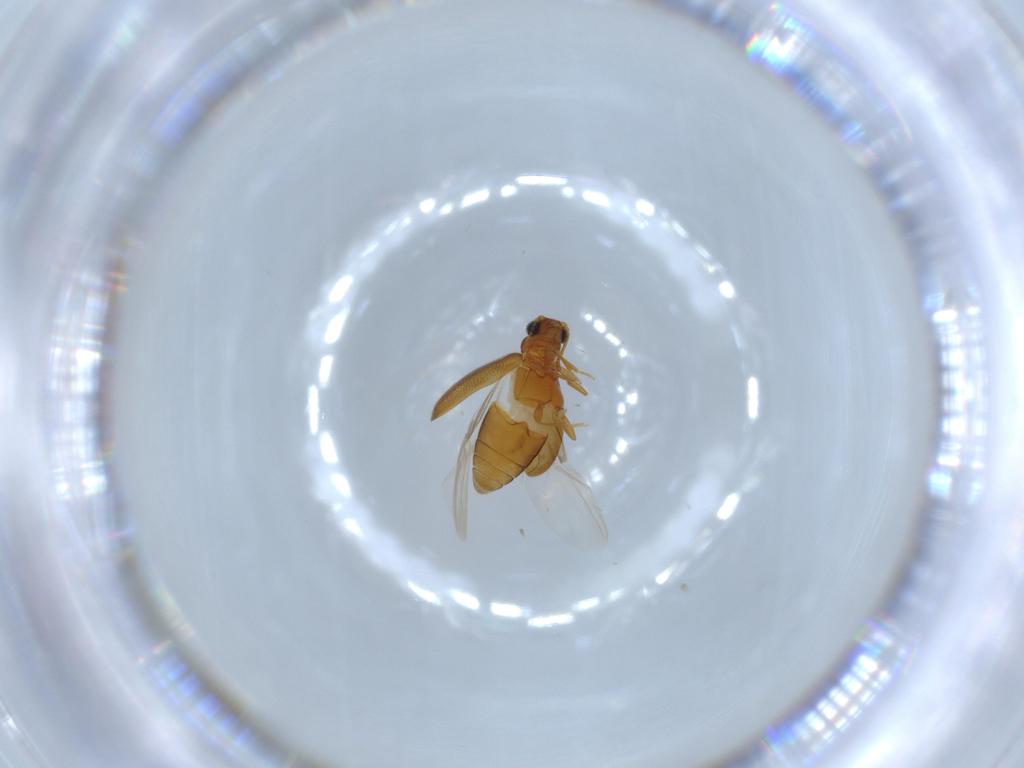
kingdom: Animalia
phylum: Arthropoda
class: Insecta
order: Coleoptera
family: Aderidae
